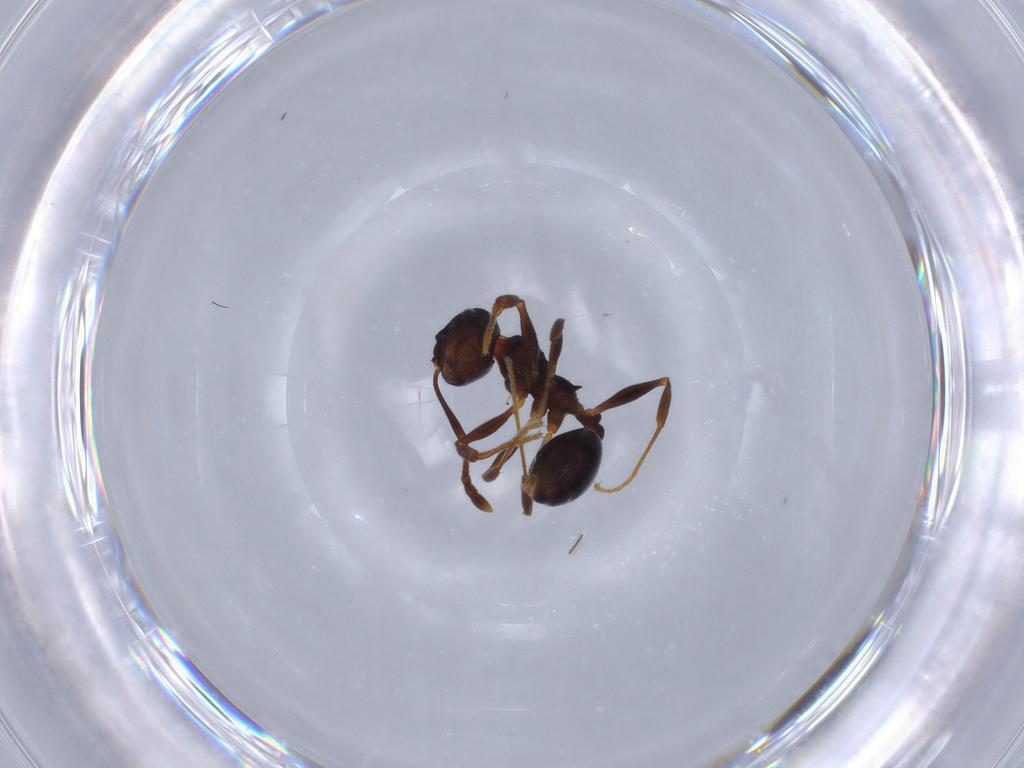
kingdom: Animalia
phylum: Arthropoda
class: Insecta
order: Hymenoptera
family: Formicidae
